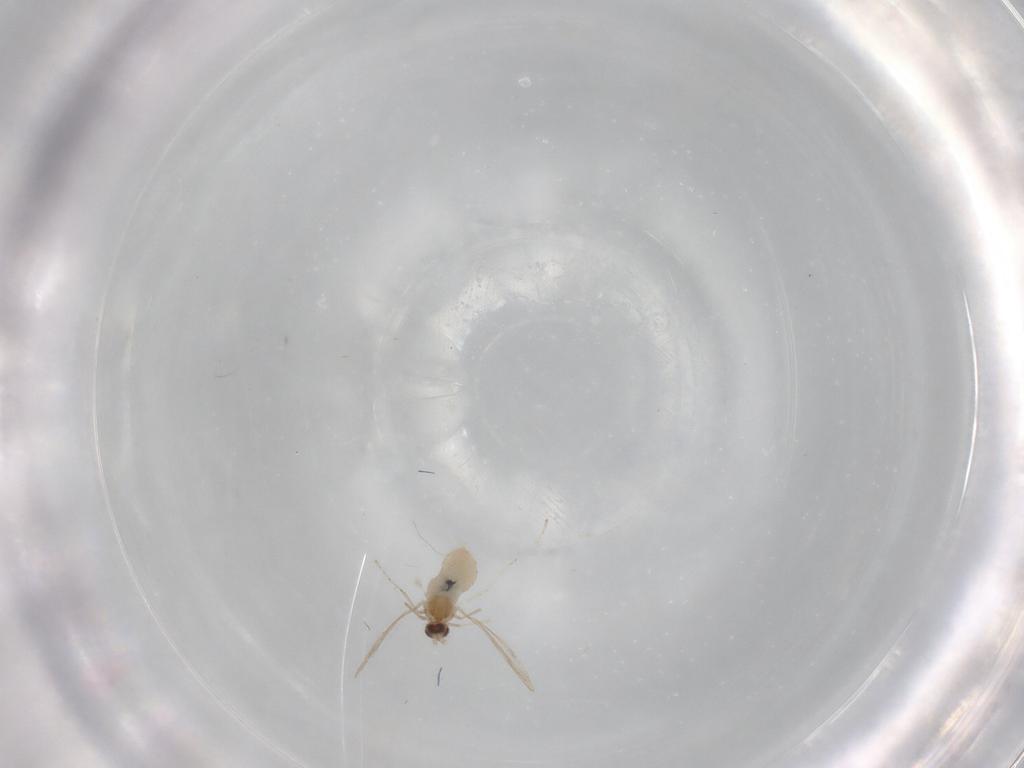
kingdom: Animalia
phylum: Arthropoda
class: Insecta
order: Diptera
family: Cecidomyiidae
